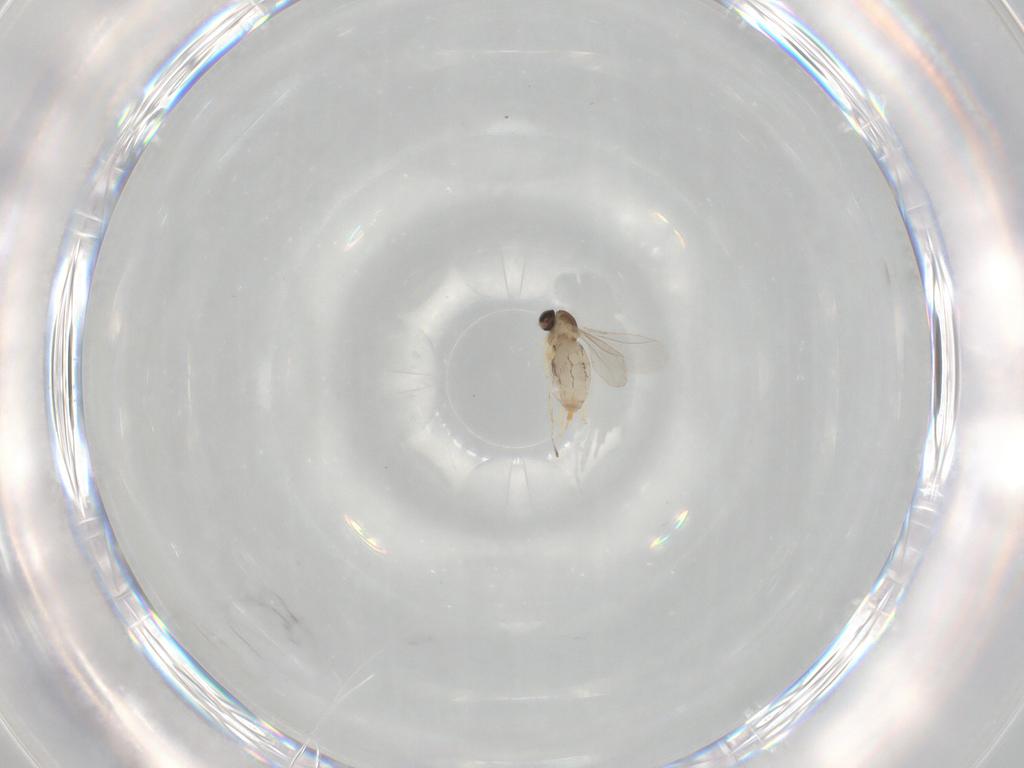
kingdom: Animalia
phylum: Arthropoda
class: Insecta
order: Diptera
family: Cecidomyiidae
